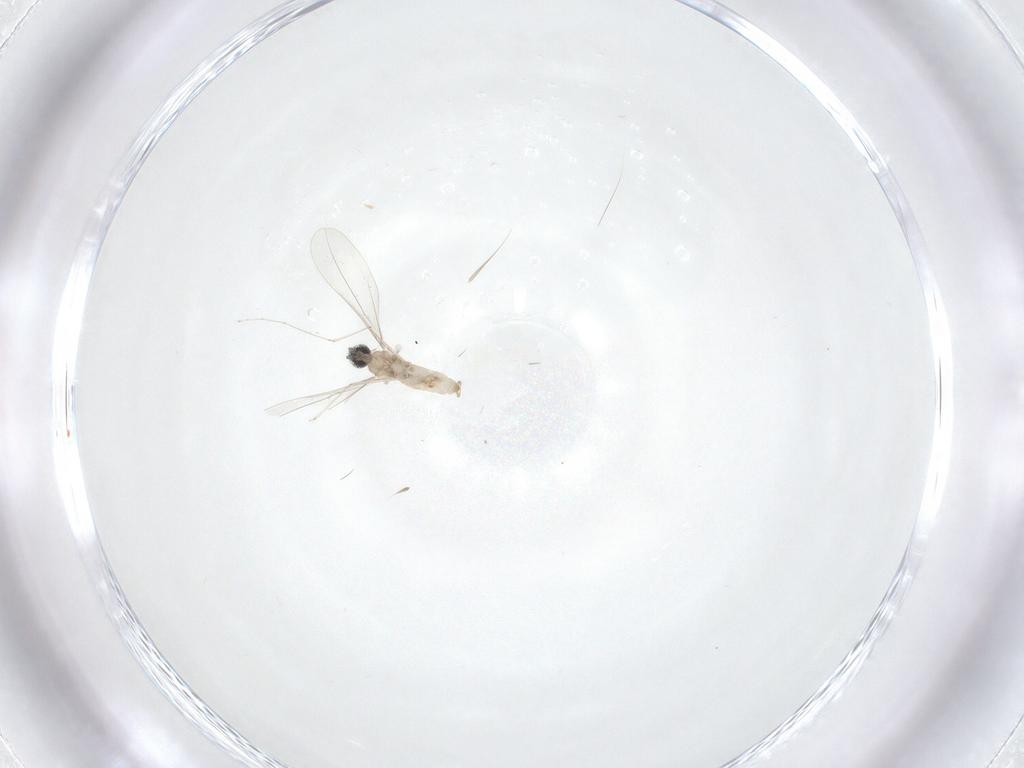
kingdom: Animalia
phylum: Arthropoda
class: Insecta
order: Diptera
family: Cecidomyiidae
